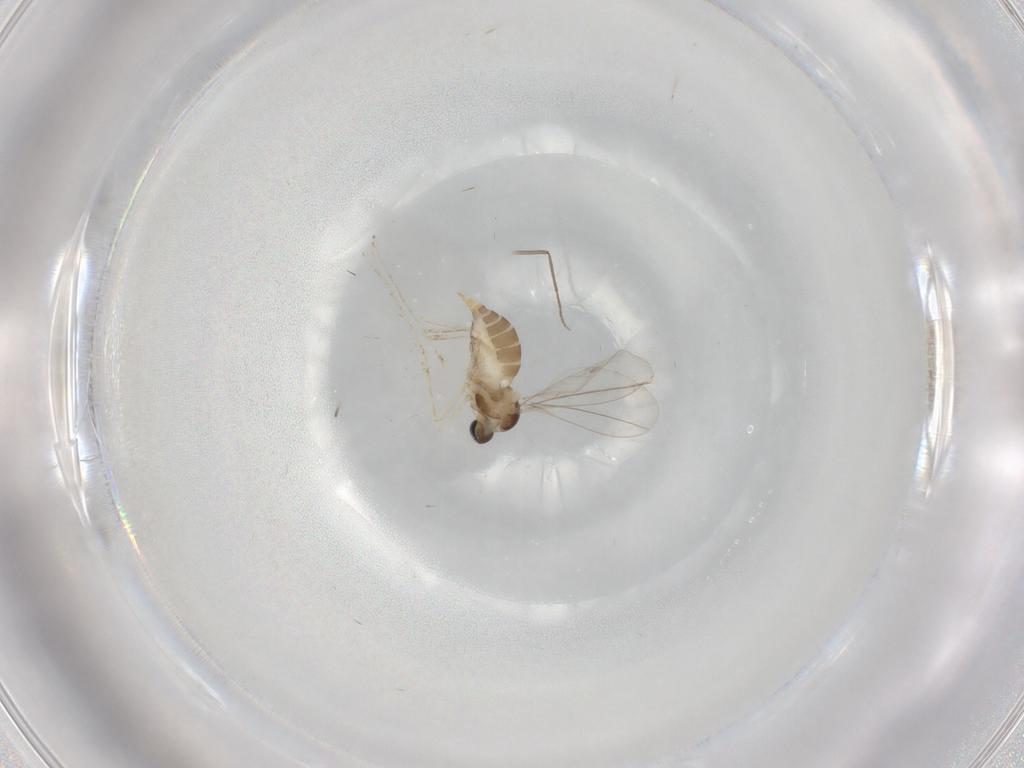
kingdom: Animalia
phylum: Arthropoda
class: Insecta
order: Diptera
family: Cecidomyiidae
